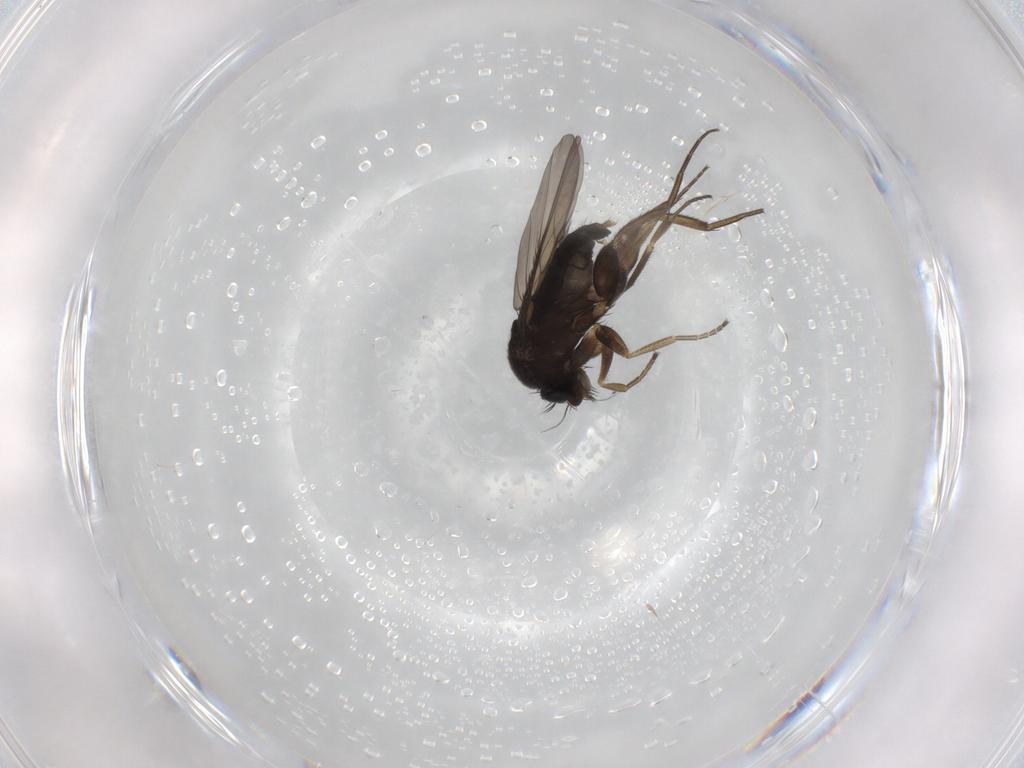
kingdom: Animalia
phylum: Arthropoda
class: Insecta
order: Diptera
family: Phoridae
